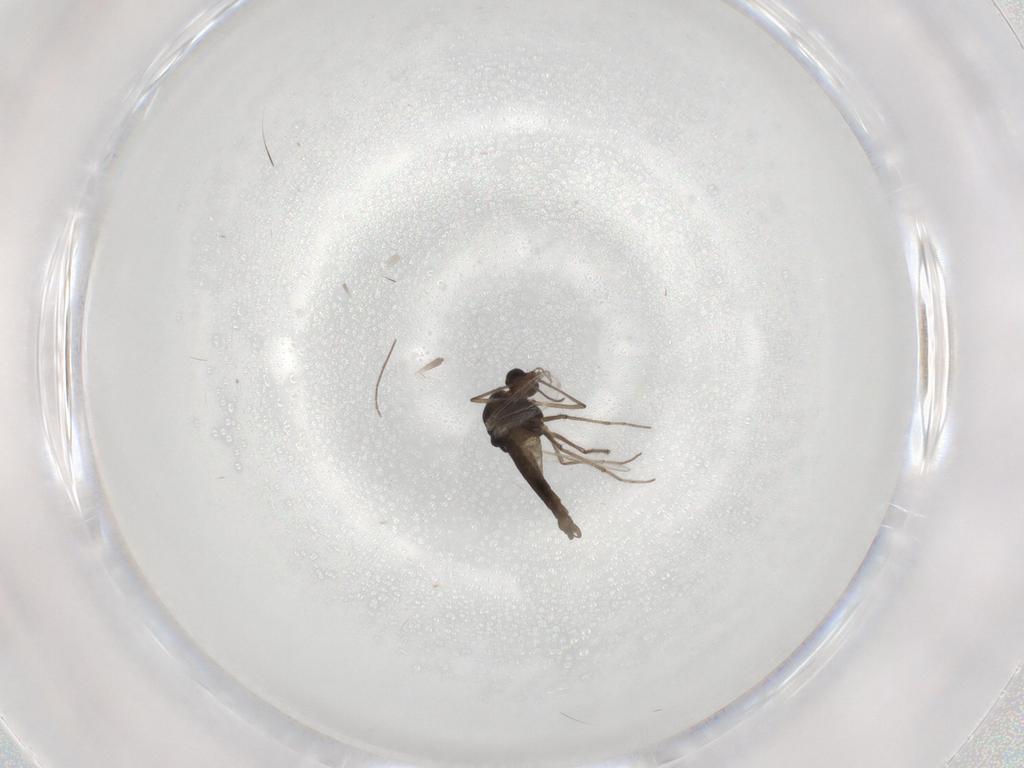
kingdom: Animalia
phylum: Arthropoda
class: Insecta
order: Diptera
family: Chironomidae
